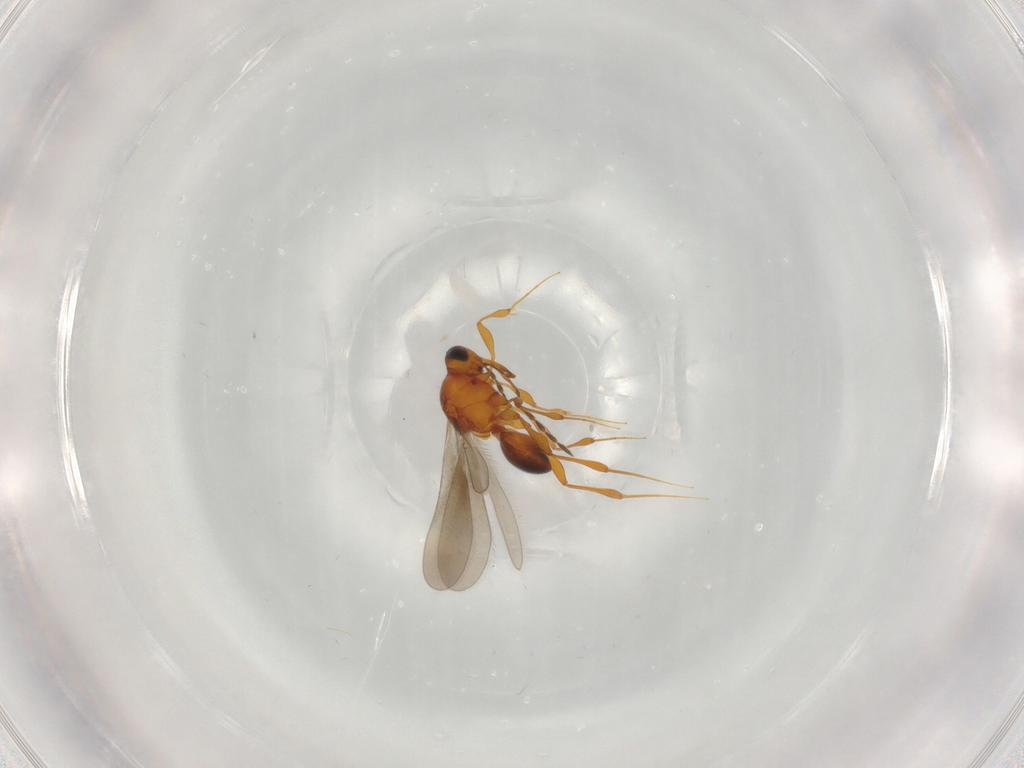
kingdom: Animalia
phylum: Arthropoda
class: Insecta
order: Hymenoptera
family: Platygastridae
